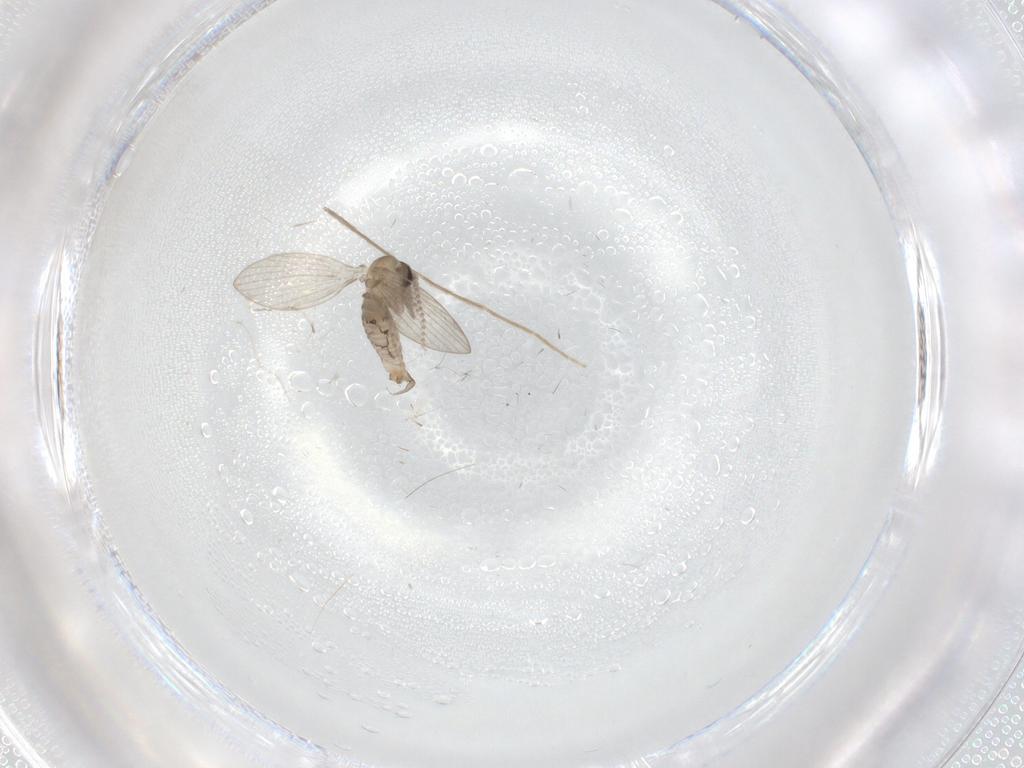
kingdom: Animalia
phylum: Arthropoda
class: Insecta
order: Diptera
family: Psychodidae
